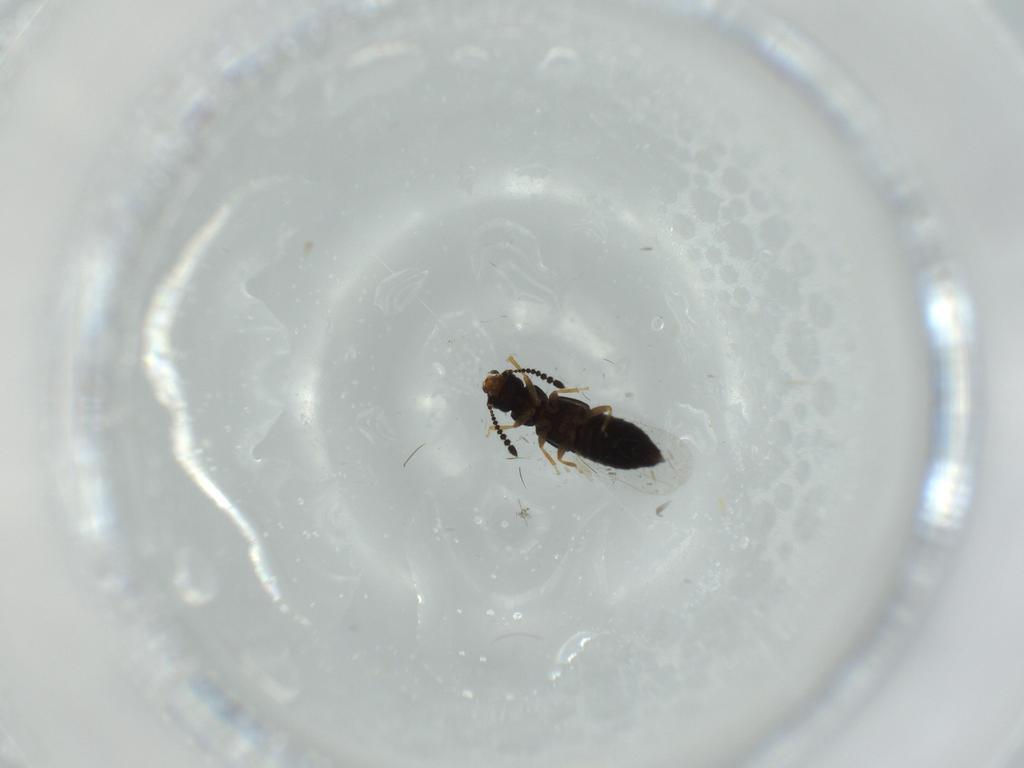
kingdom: Animalia
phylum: Arthropoda
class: Insecta
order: Coleoptera
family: Staphylinidae
